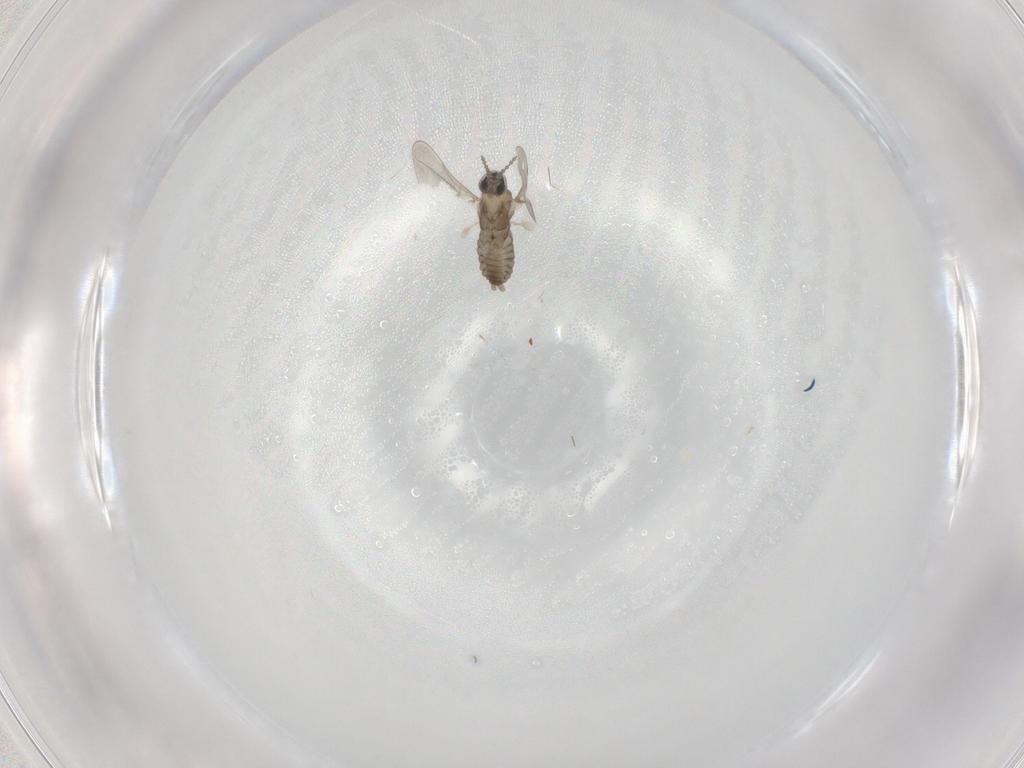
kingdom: Animalia
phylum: Arthropoda
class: Insecta
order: Diptera
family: Cecidomyiidae
